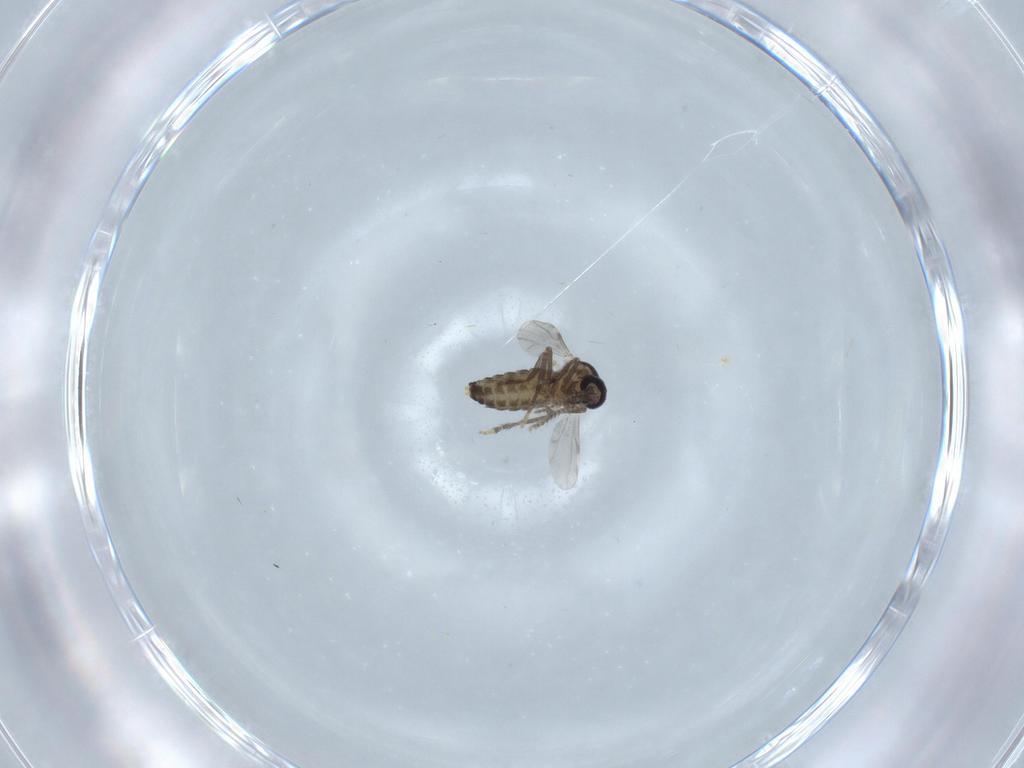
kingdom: Animalia
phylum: Arthropoda
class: Insecta
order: Diptera
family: Ceratopogonidae
